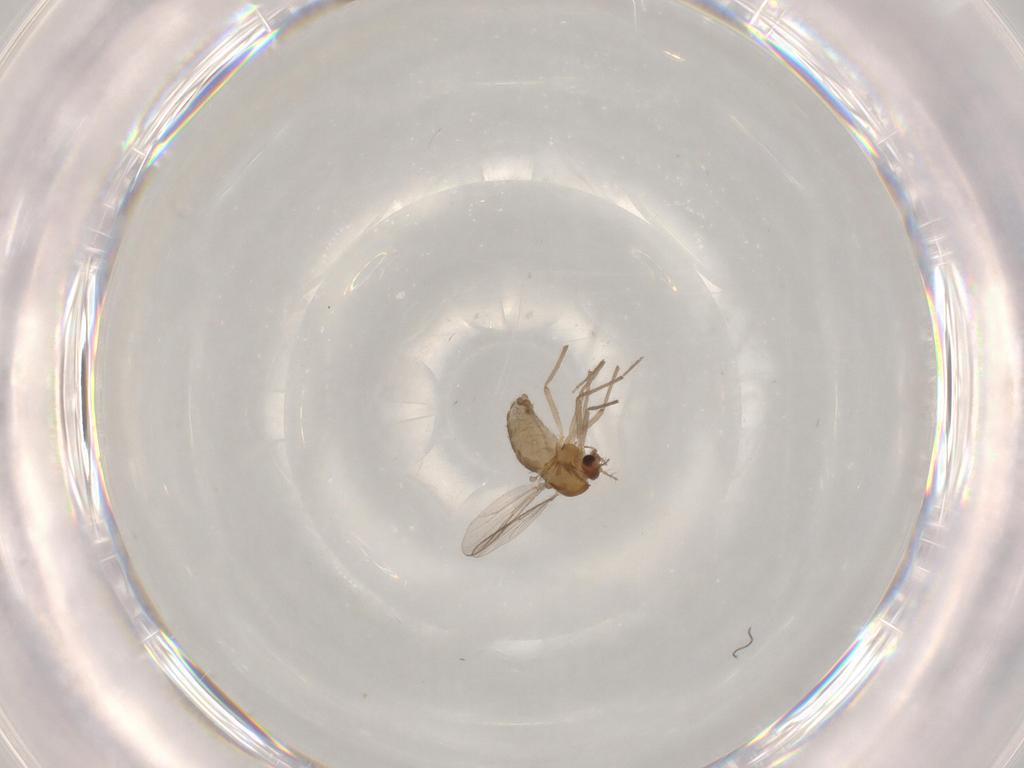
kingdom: Animalia
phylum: Arthropoda
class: Insecta
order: Diptera
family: Chironomidae
